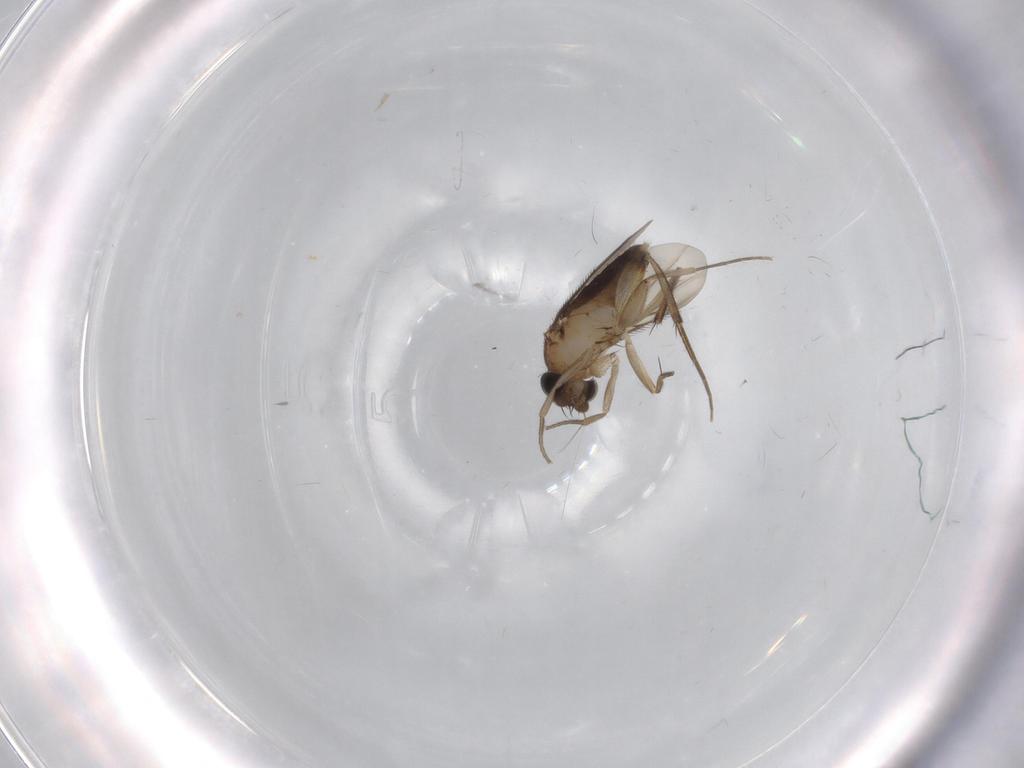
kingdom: Animalia
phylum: Arthropoda
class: Insecta
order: Diptera
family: Phoridae
